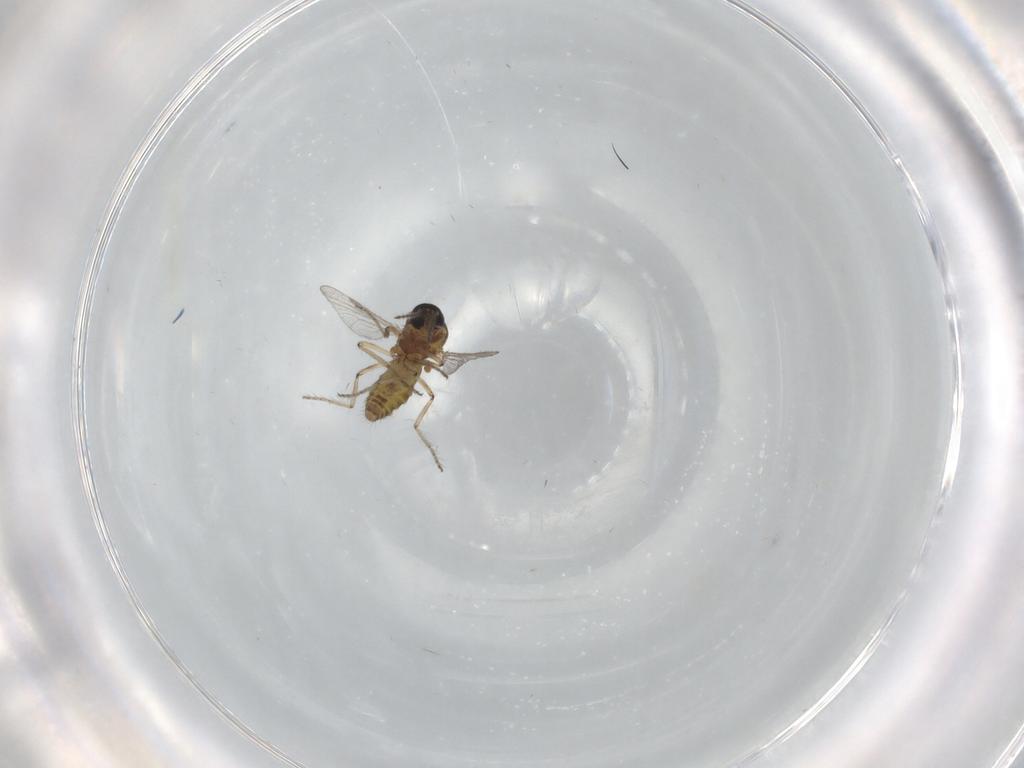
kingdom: Animalia
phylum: Arthropoda
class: Insecta
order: Diptera
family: Ceratopogonidae
